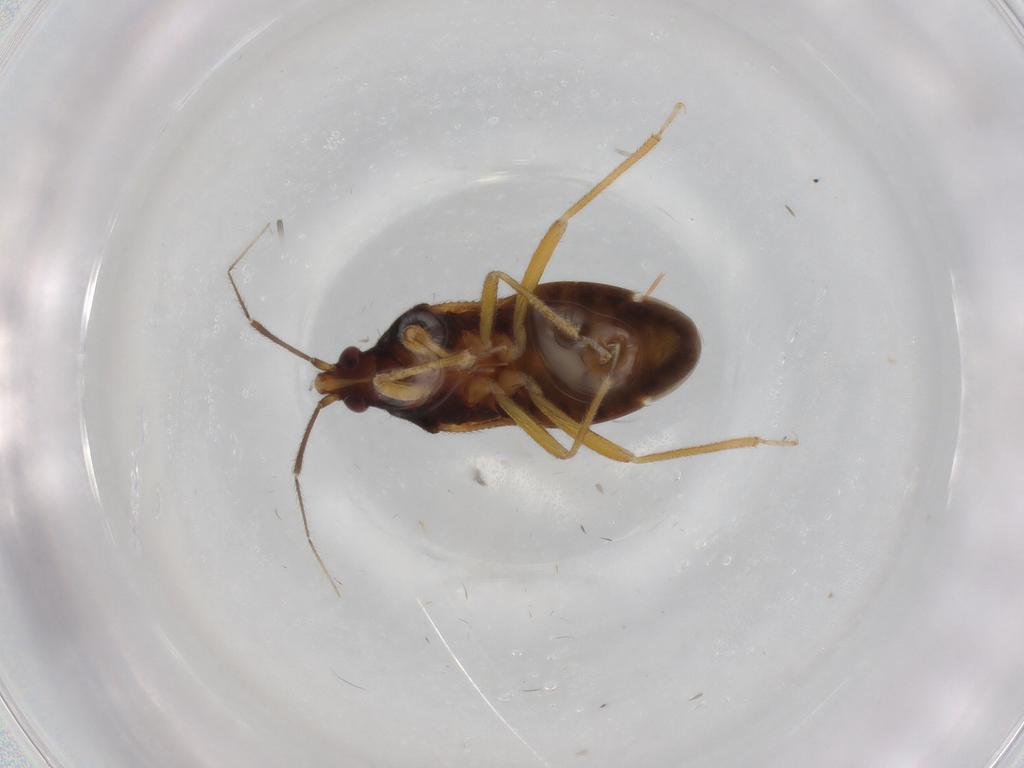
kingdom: Animalia
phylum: Arthropoda
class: Insecta
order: Hemiptera
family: Anthocoridae
